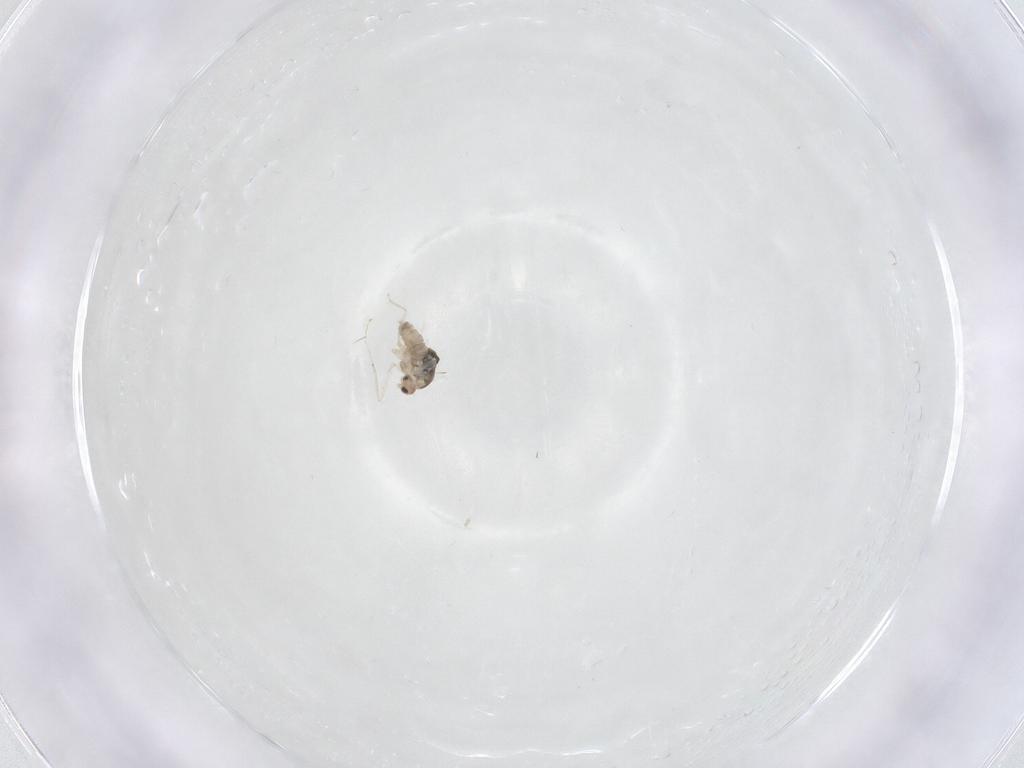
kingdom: Animalia
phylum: Arthropoda
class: Insecta
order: Diptera
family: Cecidomyiidae
